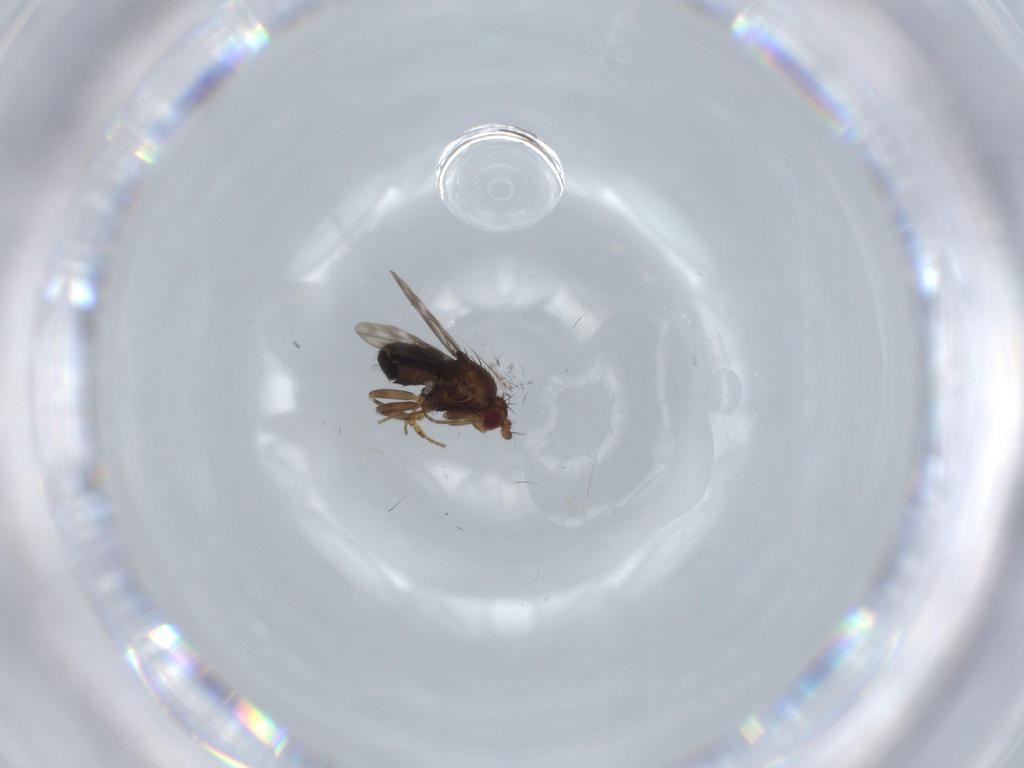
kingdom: Animalia
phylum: Arthropoda
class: Insecta
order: Diptera
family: Sphaeroceridae
